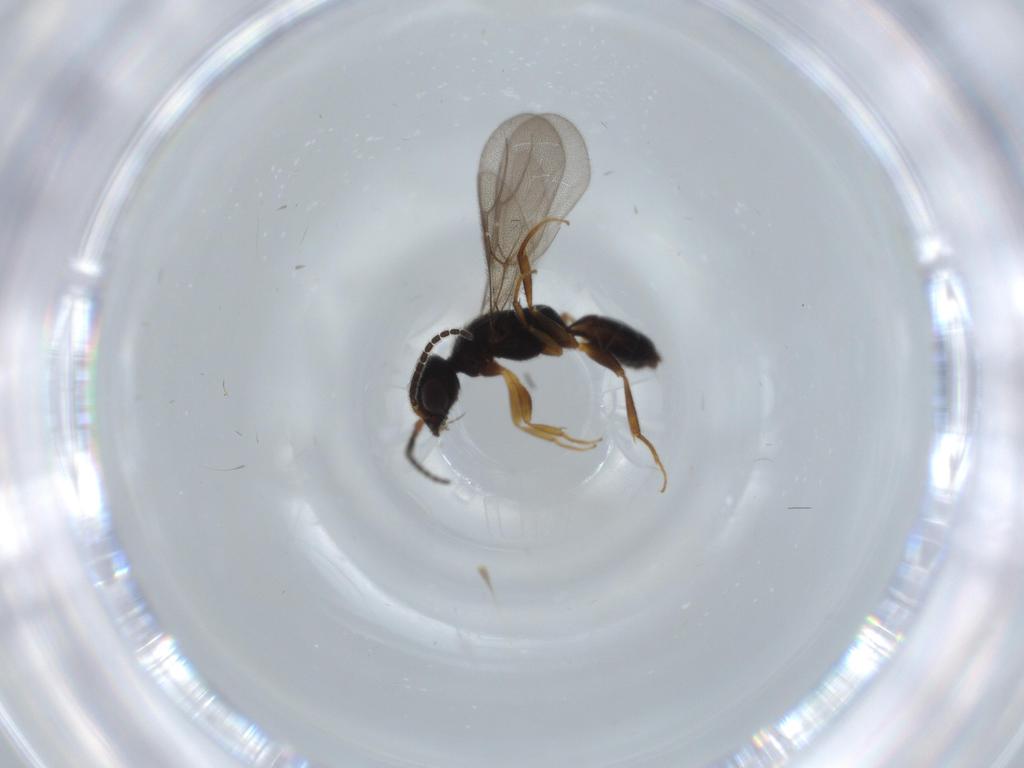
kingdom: Animalia
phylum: Arthropoda
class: Insecta
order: Hymenoptera
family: Bethylidae
